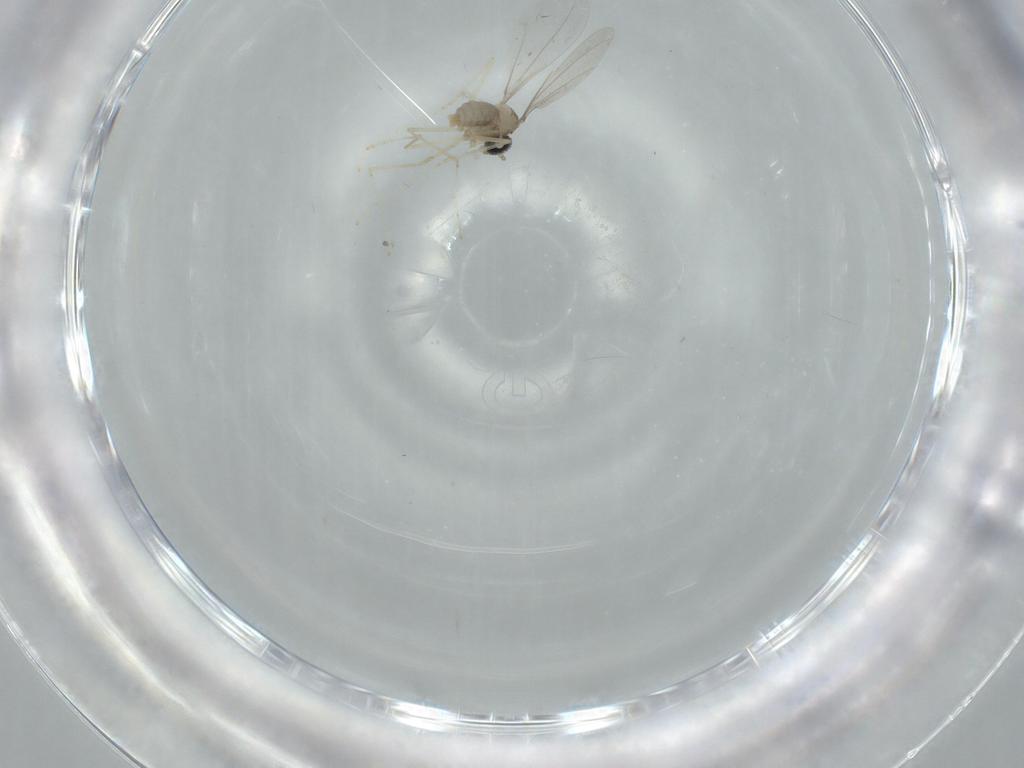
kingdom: Animalia
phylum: Arthropoda
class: Insecta
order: Diptera
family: Cecidomyiidae
